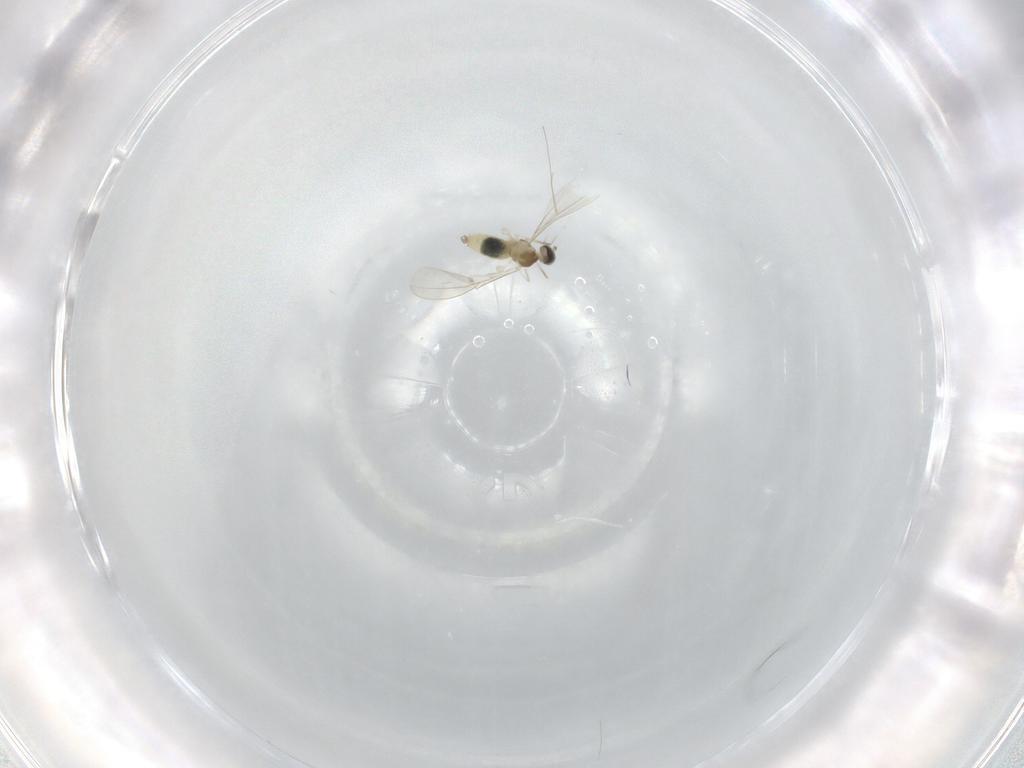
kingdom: Animalia
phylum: Arthropoda
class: Insecta
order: Diptera
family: Cecidomyiidae
